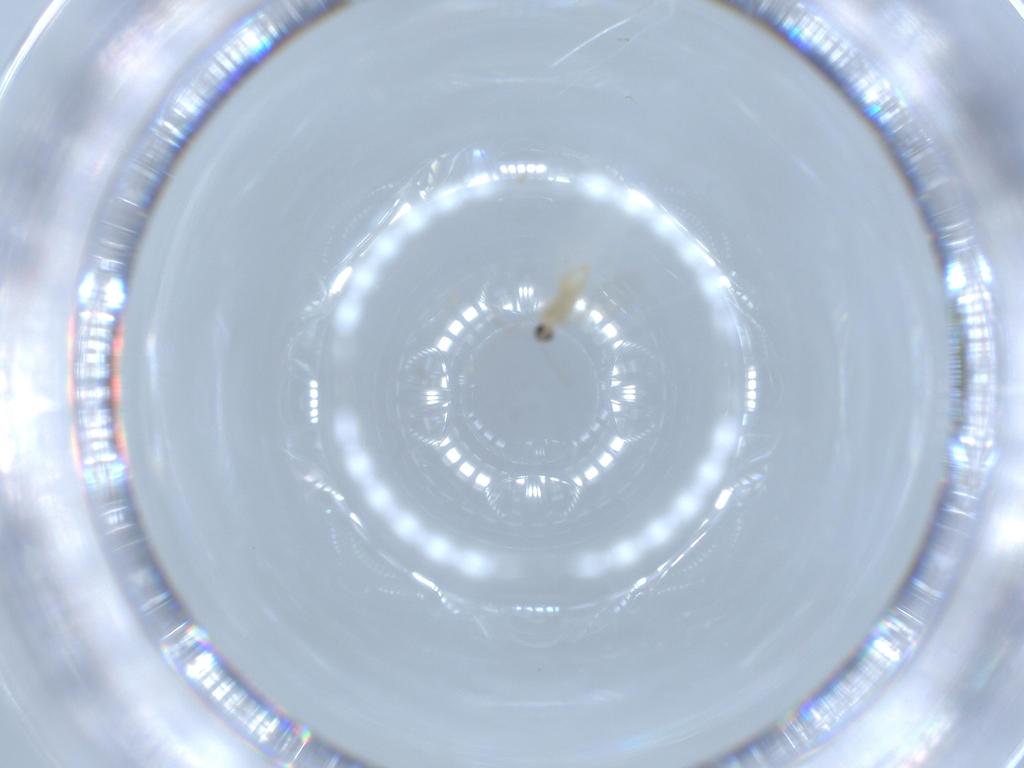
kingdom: Animalia
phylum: Arthropoda
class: Insecta
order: Diptera
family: Cecidomyiidae
